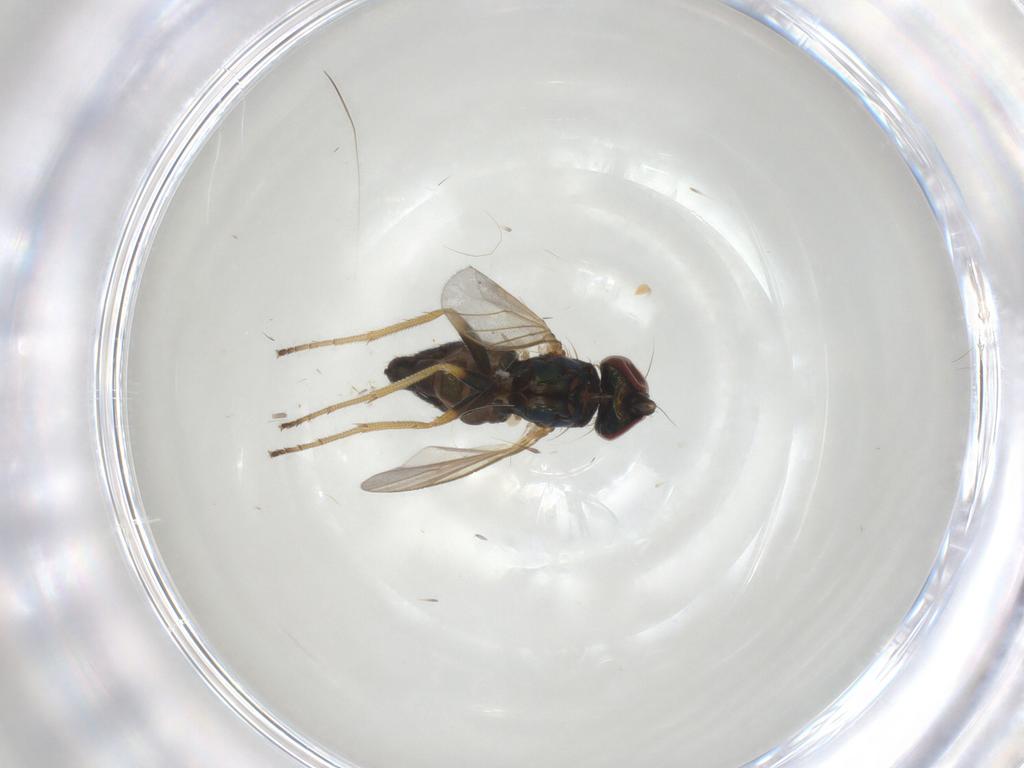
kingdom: Animalia
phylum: Arthropoda
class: Insecta
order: Diptera
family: Dolichopodidae
